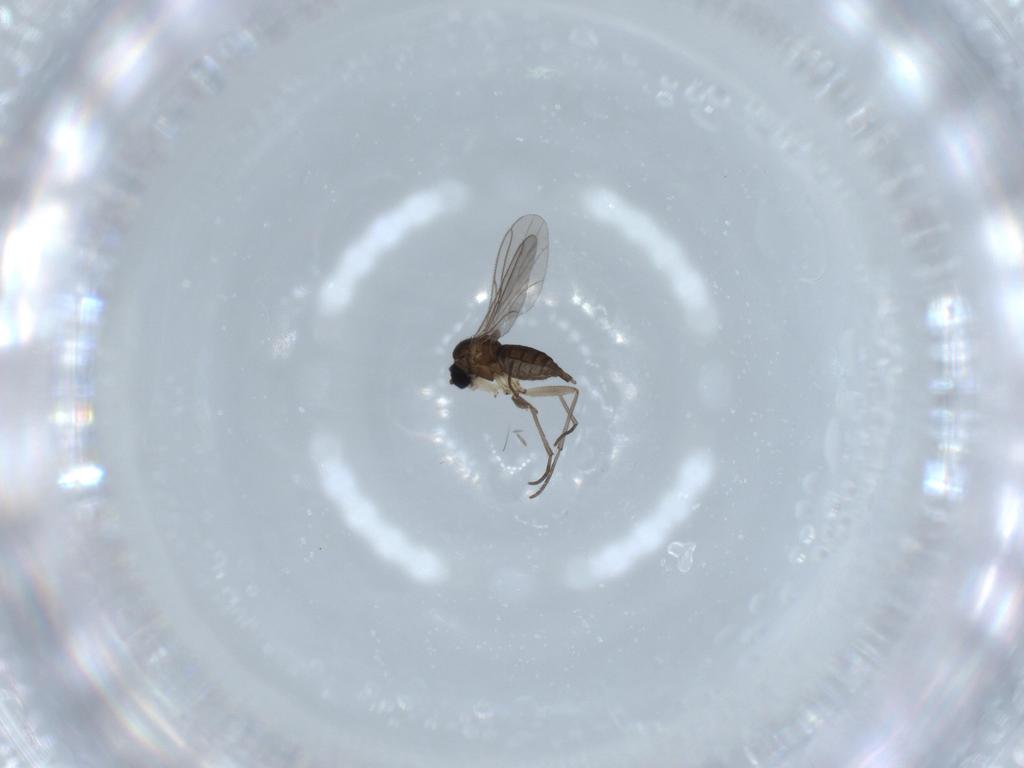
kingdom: Animalia
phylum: Arthropoda
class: Insecta
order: Diptera
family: Sciaridae
